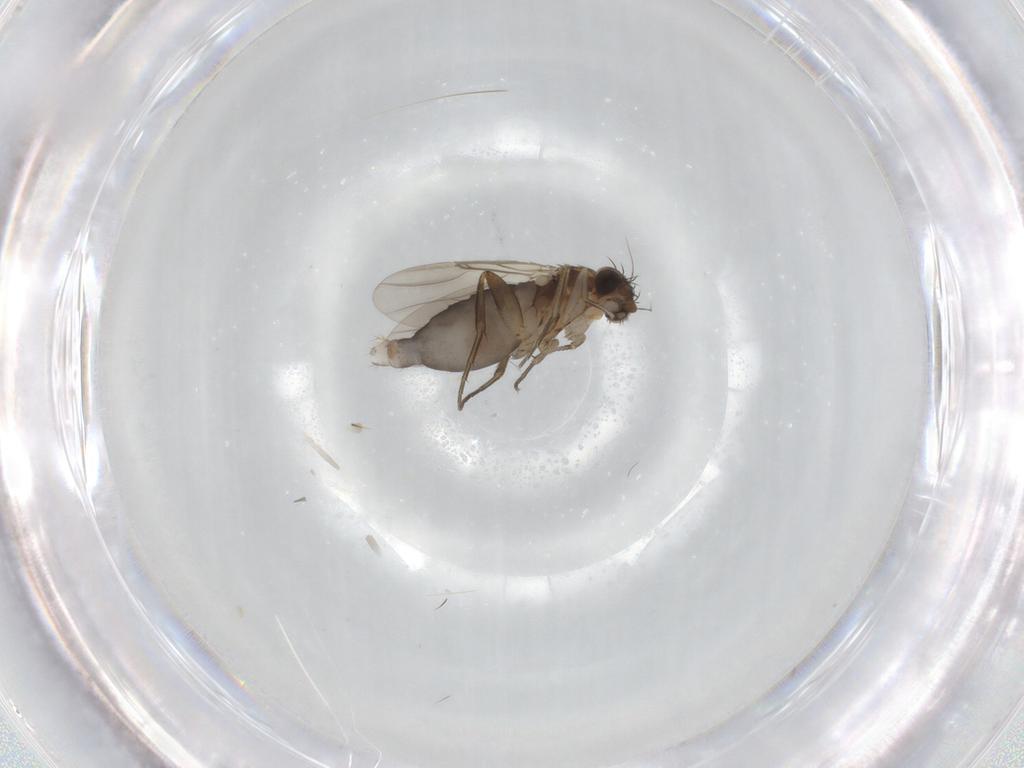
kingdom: Animalia
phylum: Arthropoda
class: Insecta
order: Diptera
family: Phoridae
